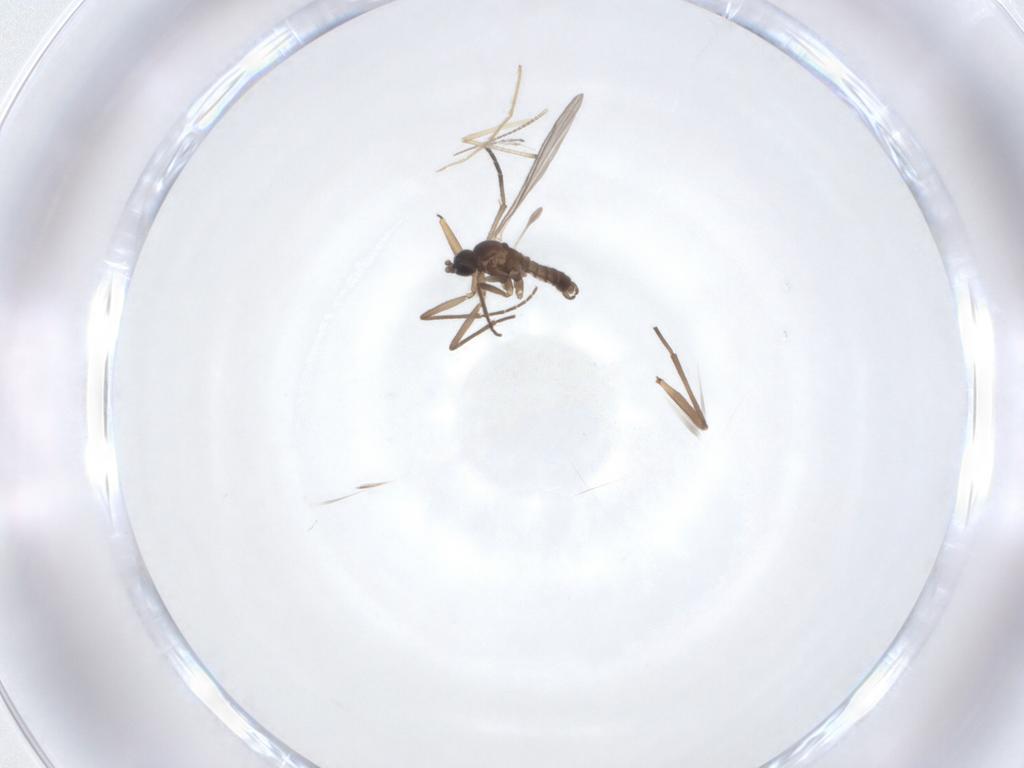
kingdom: Animalia
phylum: Arthropoda
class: Insecta
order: Diptera
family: Sciaridae
